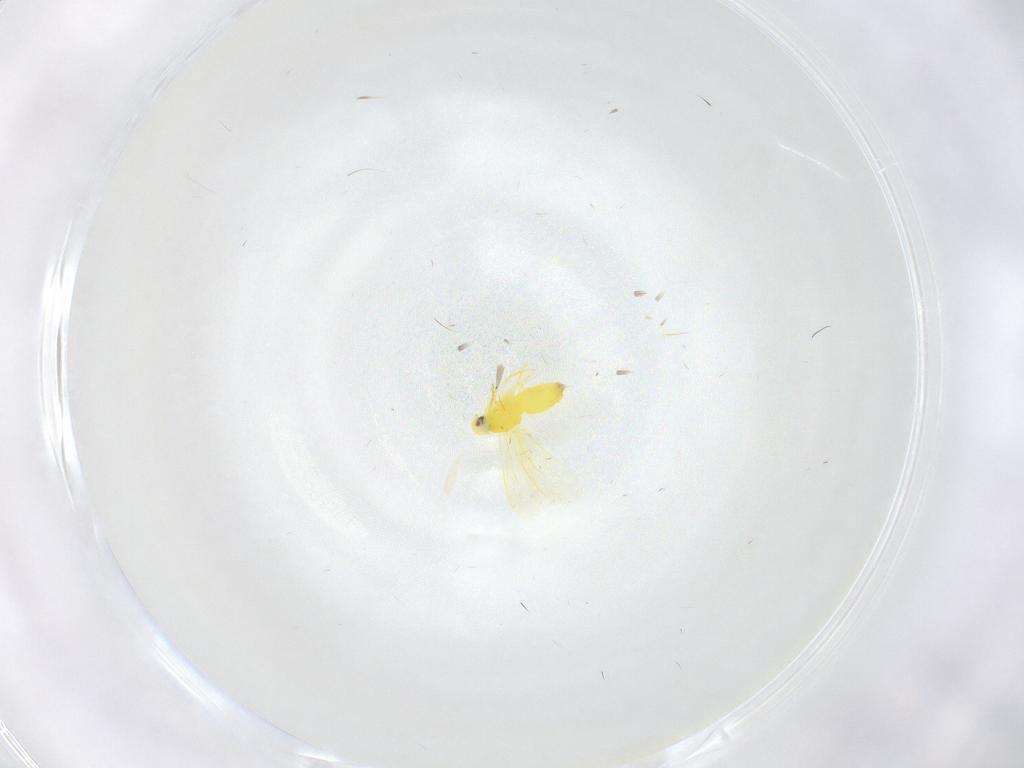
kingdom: Animalia
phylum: Arthropoda
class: Insecta
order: Hemiptera
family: Aleyrodidae
